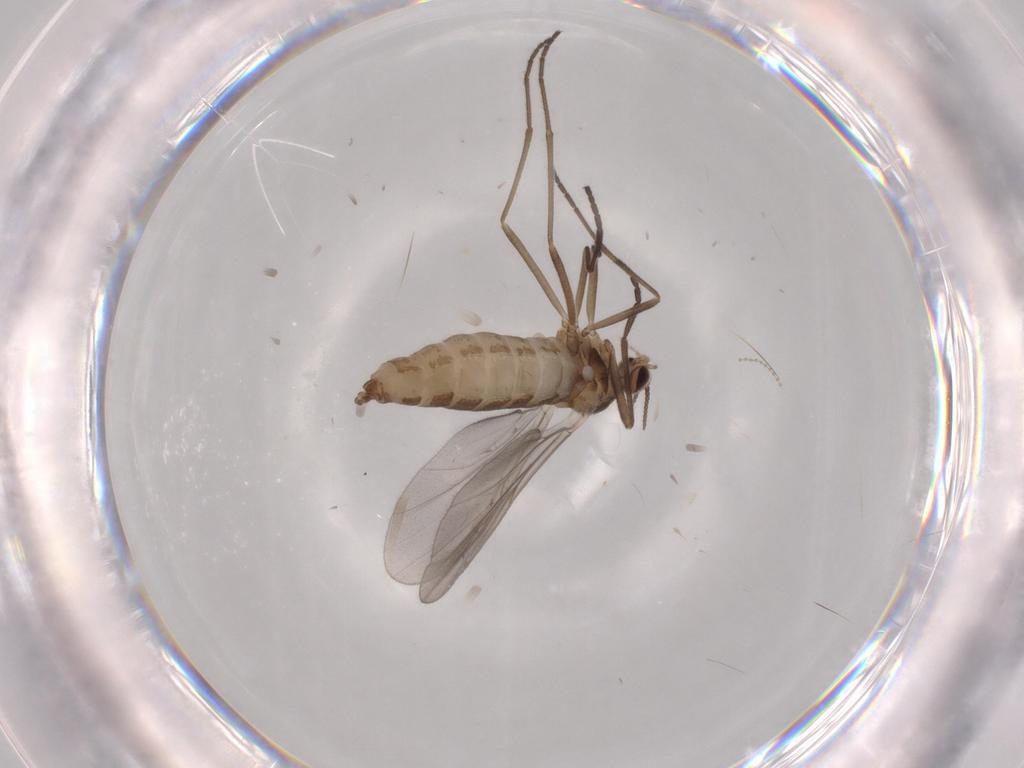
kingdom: Animalia
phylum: Arthropoda
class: Insecta
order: Diptera
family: Cecidomyiidae
